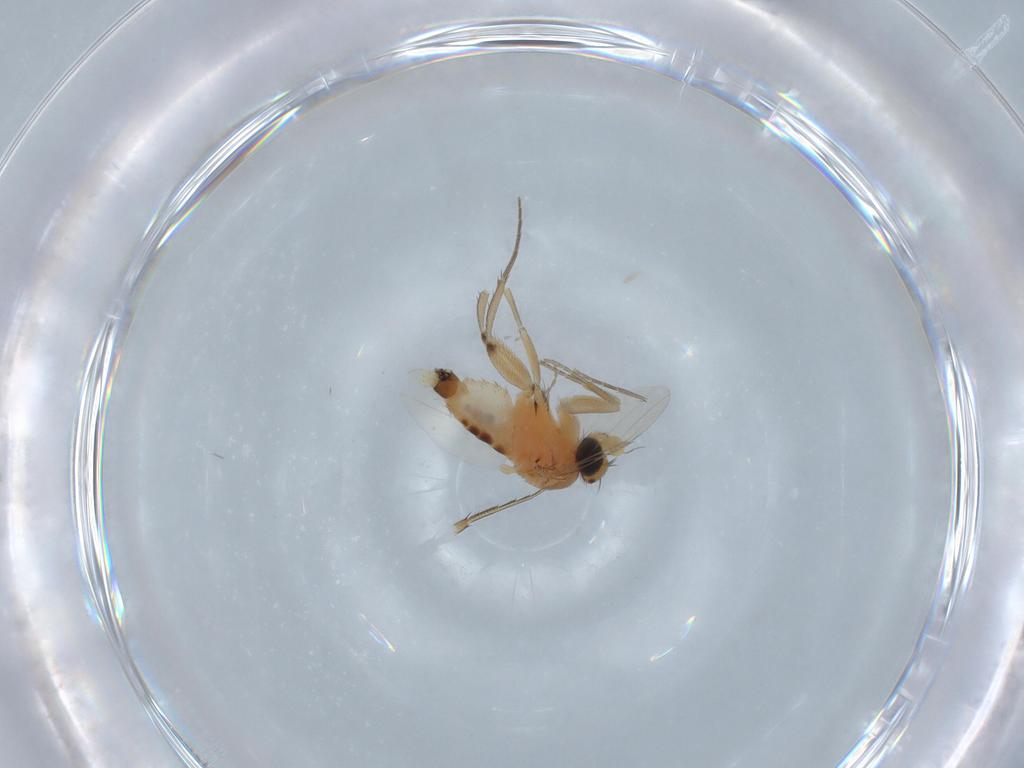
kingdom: Animalia
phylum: Arthropoda
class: Insecta
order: Diptera
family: Phoridae
